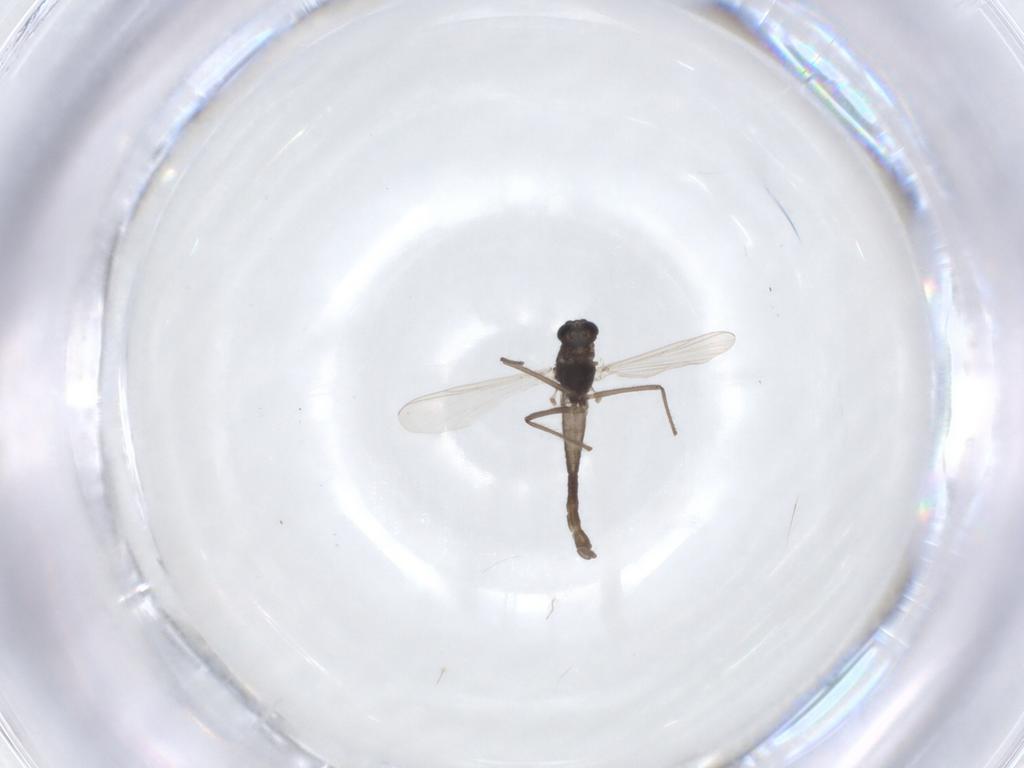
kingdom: Animalia
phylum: Arthropoda
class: Insecta
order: Diptera
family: Chironomidae
